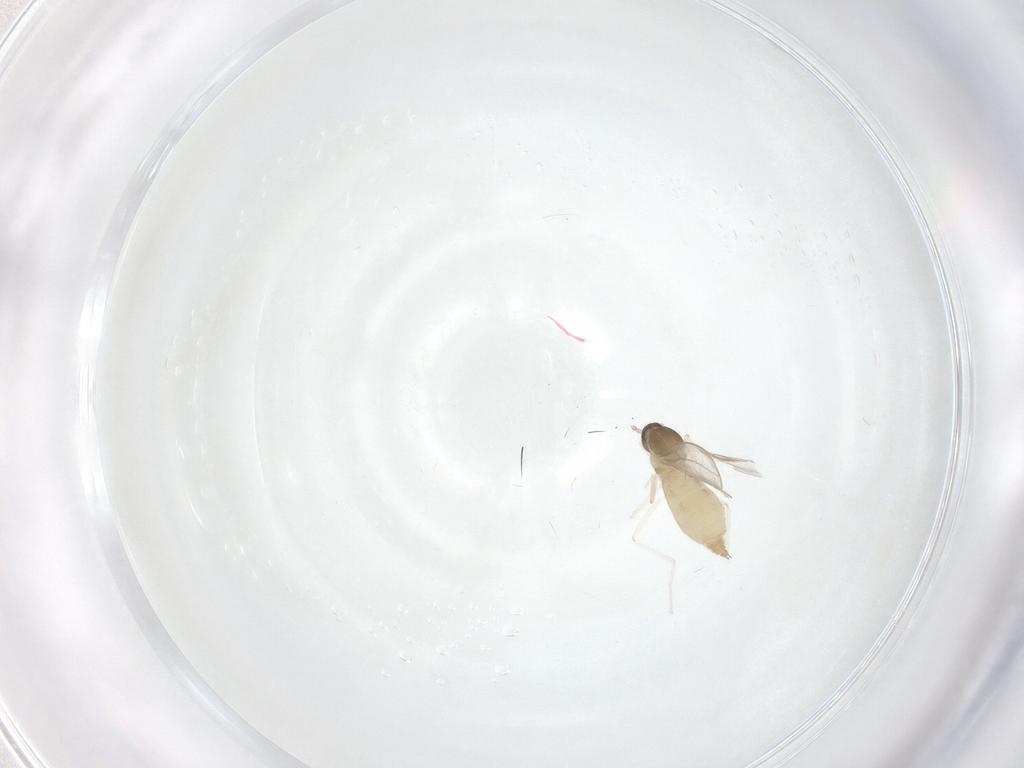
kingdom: Animalia
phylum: Arthropoda
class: Insecta
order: Diptera
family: Cecidomyiidae
